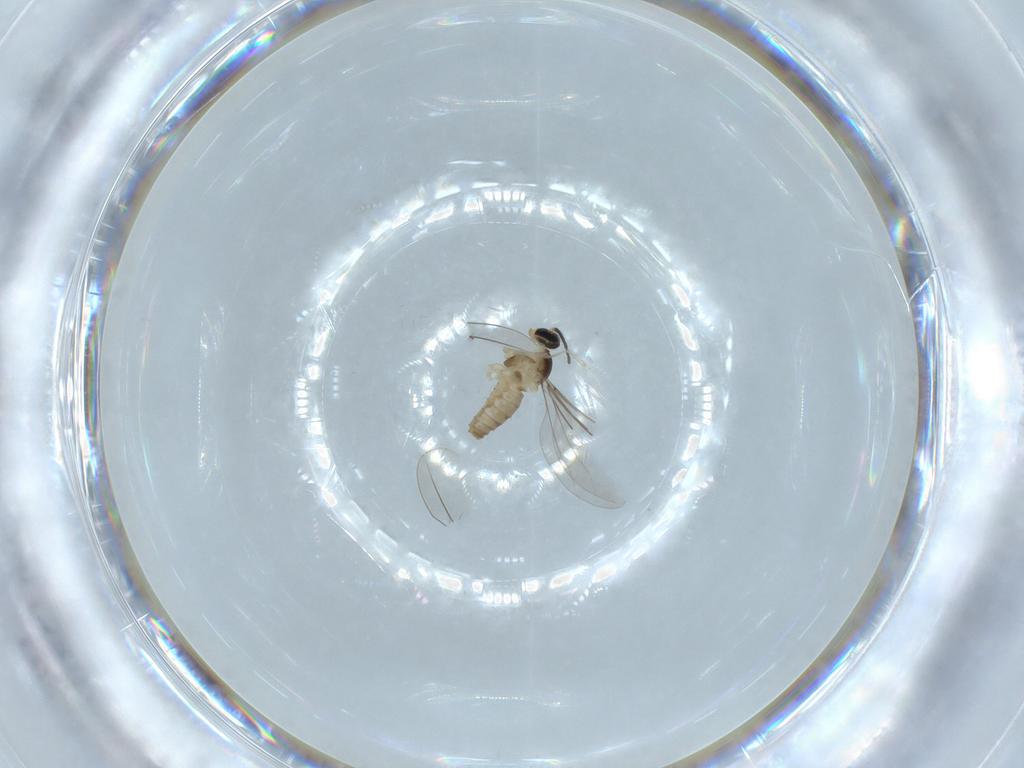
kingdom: Animalia
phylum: Arthropoda
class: Insecta
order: Diptera
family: Cecidomyiidae
